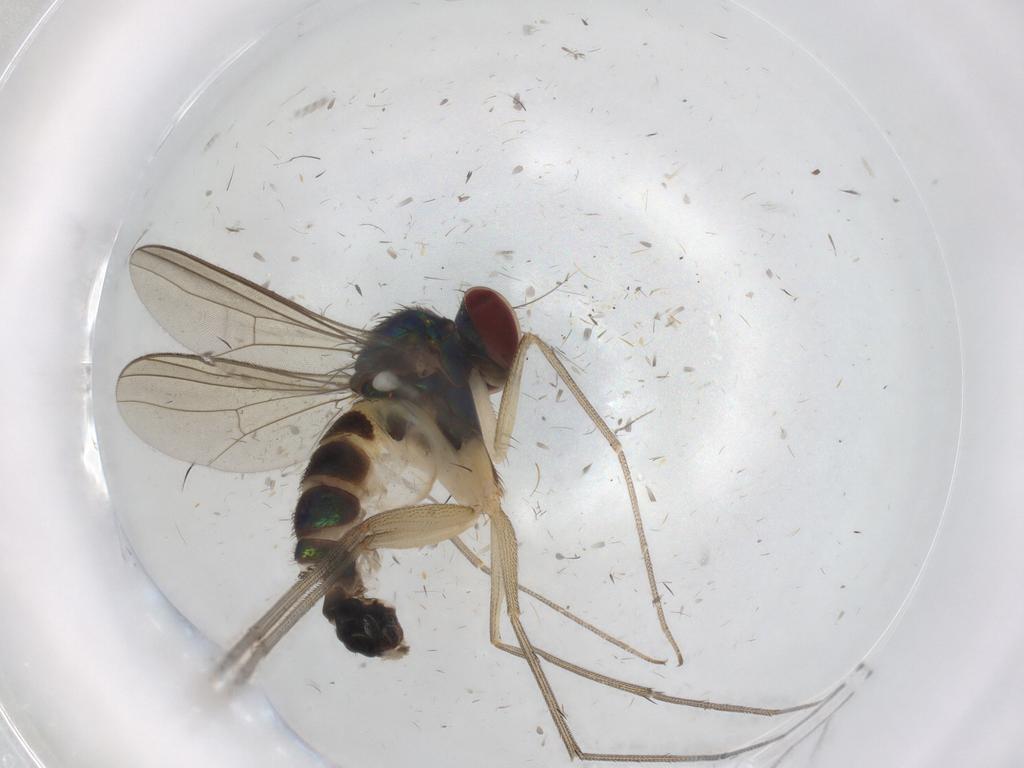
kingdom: Animalia
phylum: Arthropoda
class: Insecta
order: Diptera
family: Dolichopodidae
